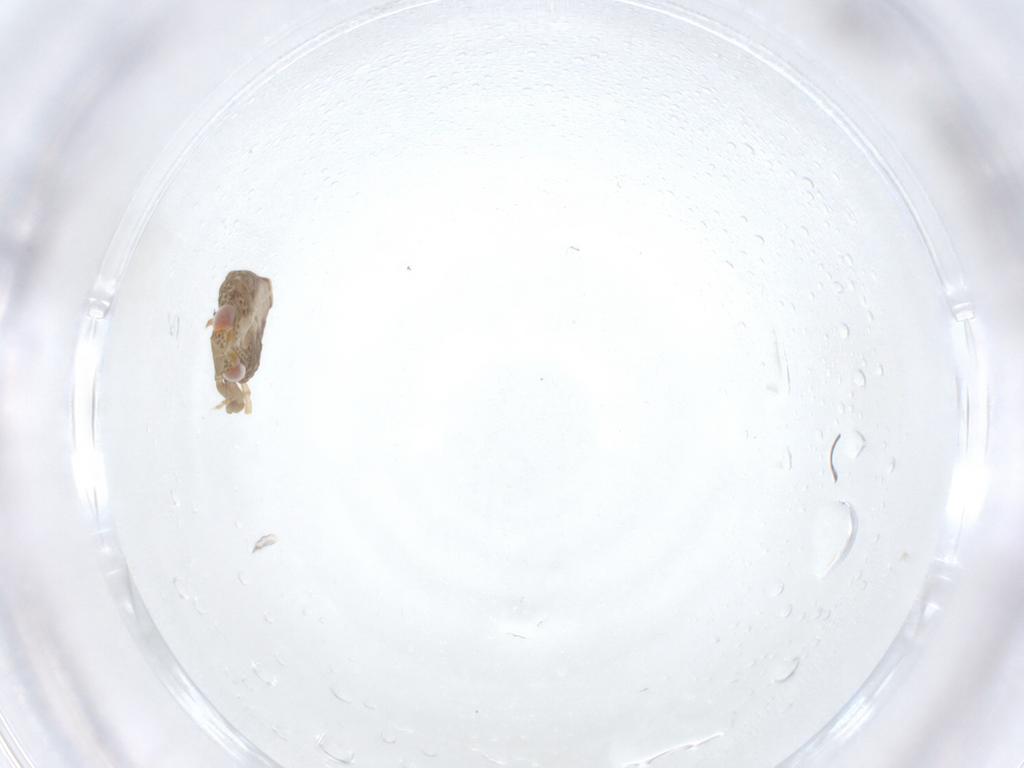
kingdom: Animalia
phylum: Arthropoda
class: Insecta
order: Hemiptera
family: Issidae
